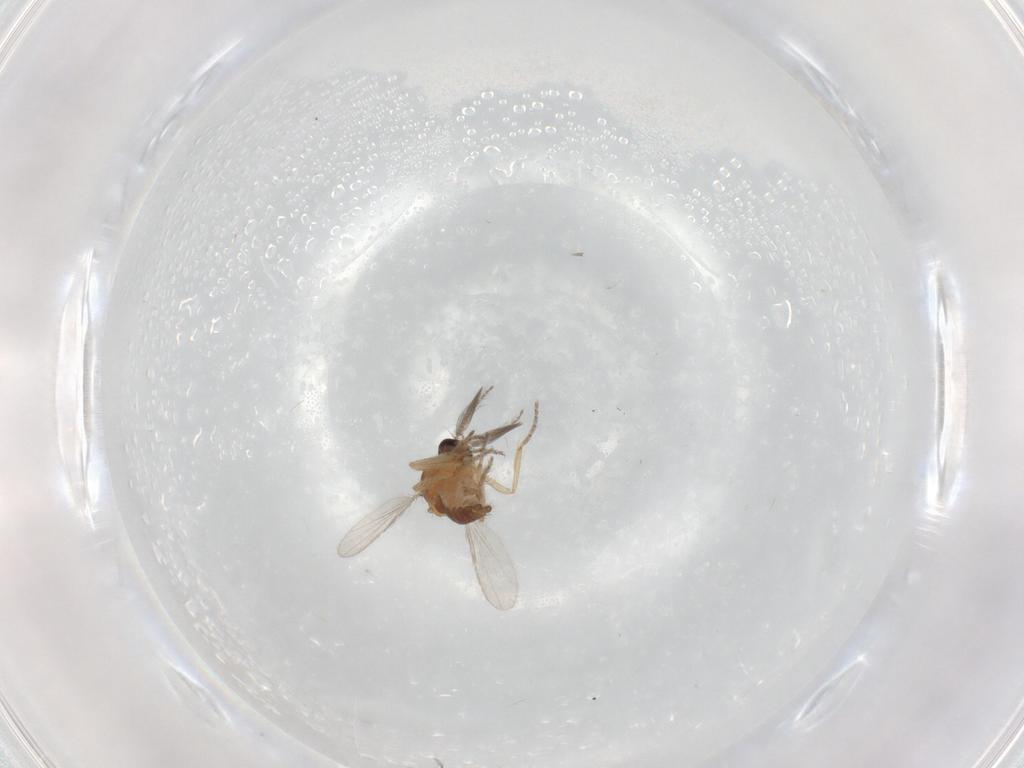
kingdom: Animalia
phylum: Arthropoda
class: Insecta
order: Diptera
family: Ceratopogonidae
